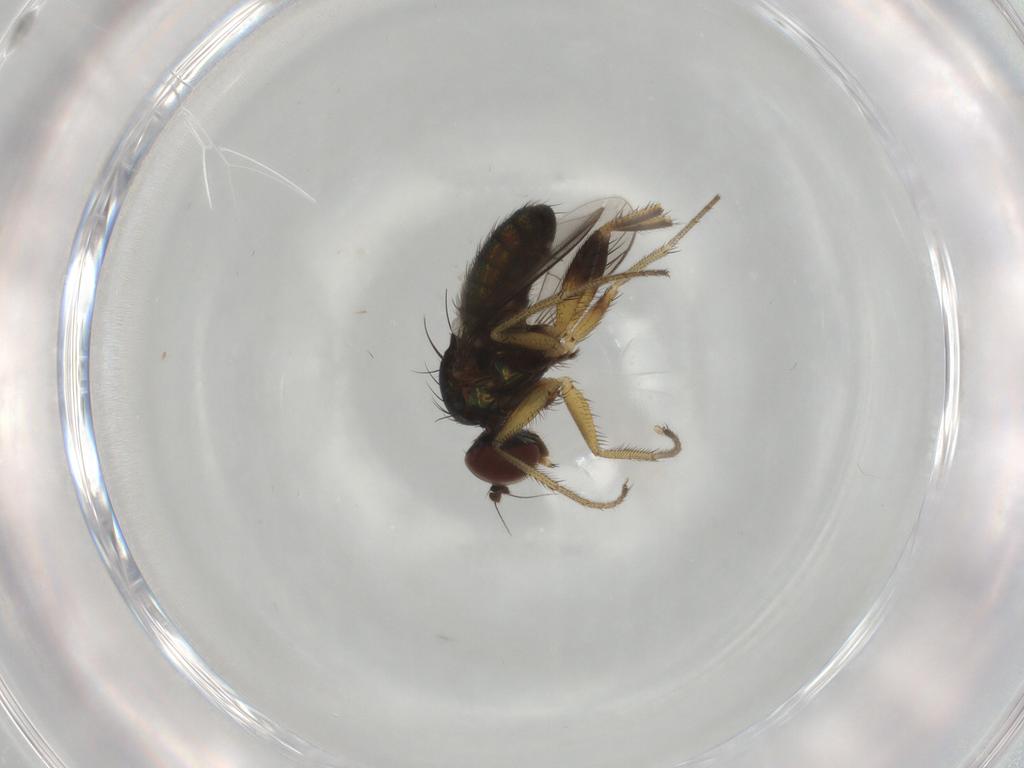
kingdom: Animalia
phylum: Arthropoda
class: Insecta
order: Diptera
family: Dolichopodidae
